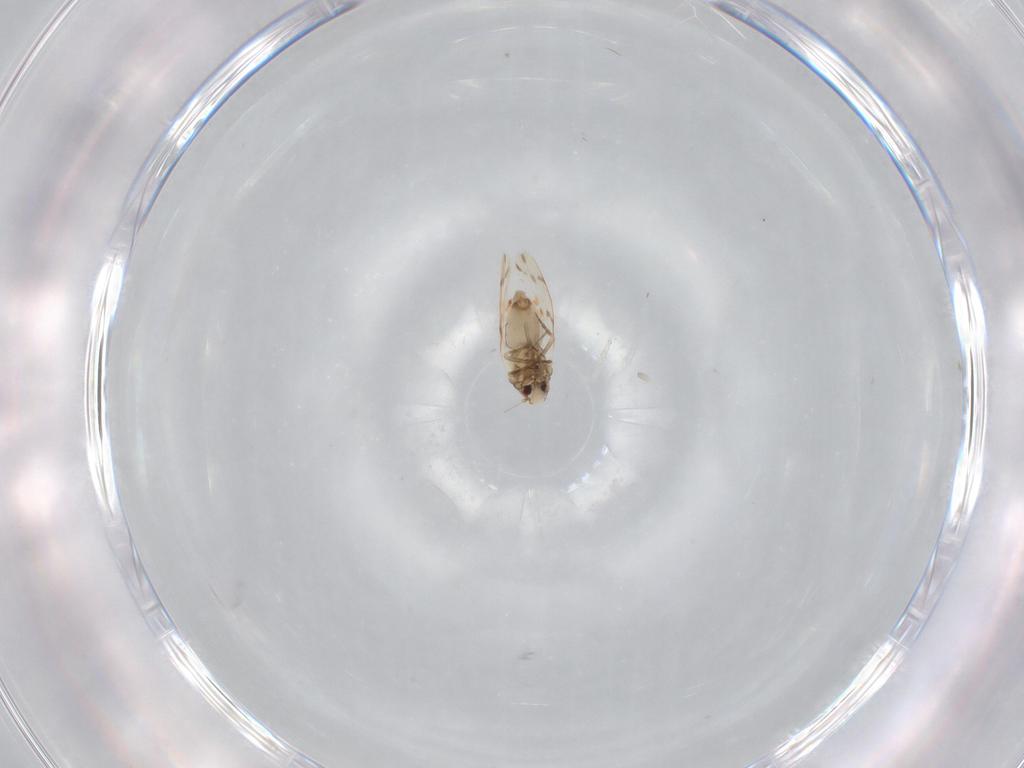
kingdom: Animalia
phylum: Arthropoda
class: Insecta
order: Hemiptera
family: Aleyrodidae
